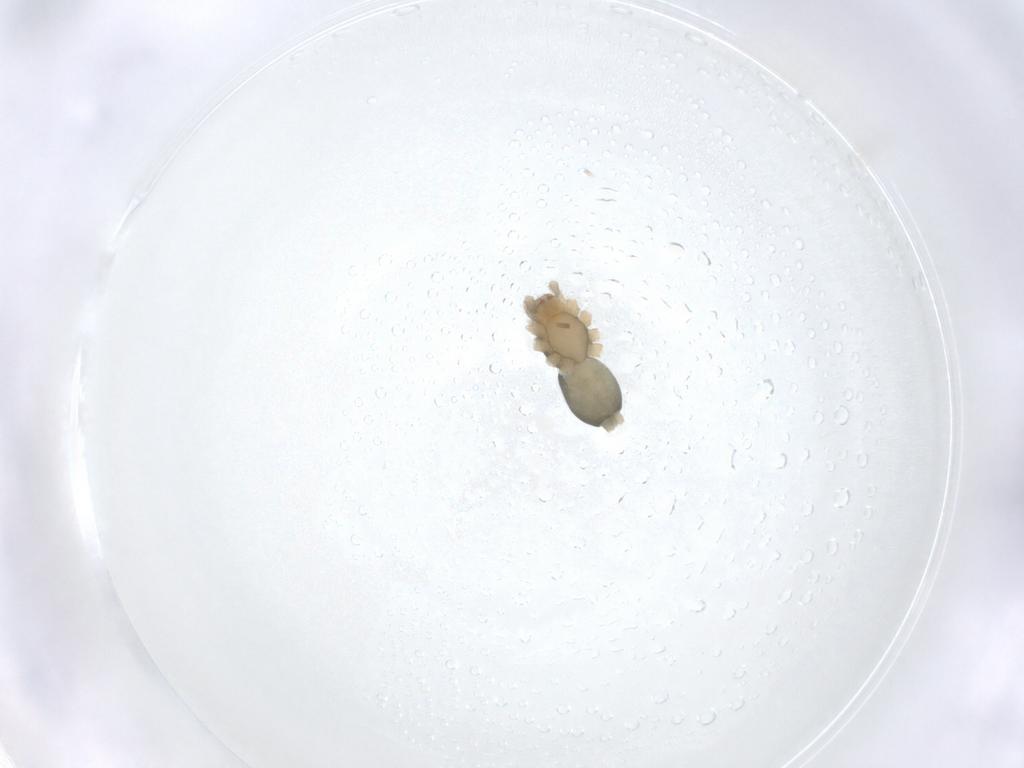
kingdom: Animalia
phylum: Arthropoda
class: Arachnida
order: Araneae
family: Gnaphosidae
